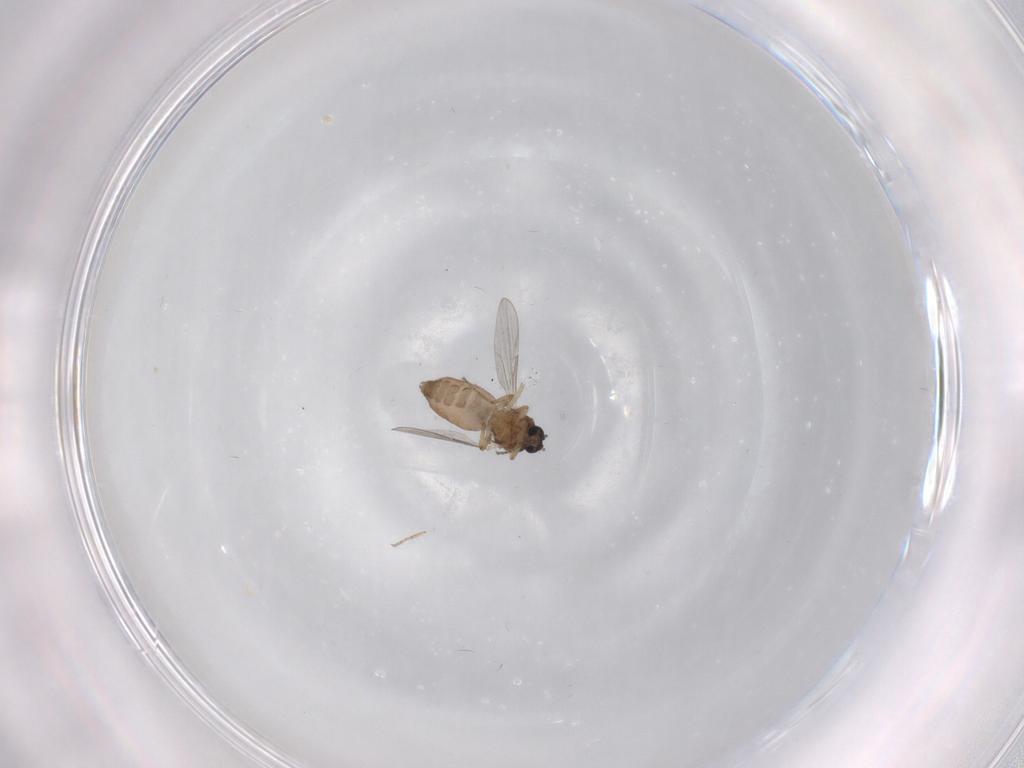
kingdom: Animalia
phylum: Arthropoda
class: Insecta
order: Diptera
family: Ceratopogonidae
